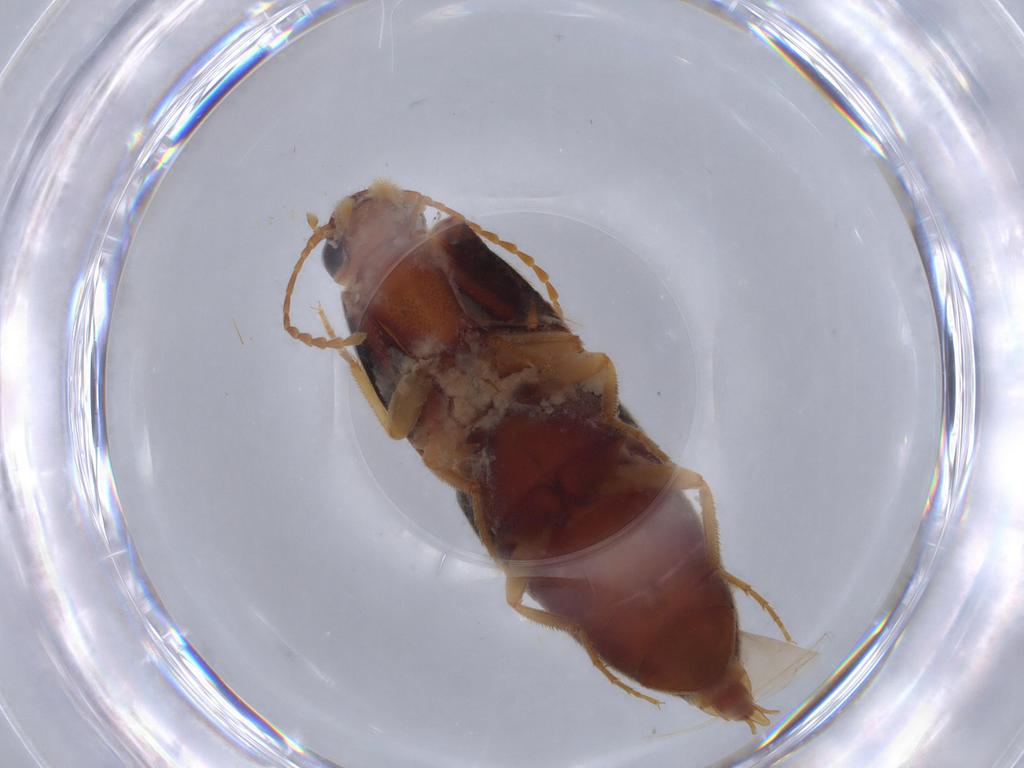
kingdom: Animalia
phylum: Arthropoda
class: Insecta
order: Coleoptera
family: Elateridae
